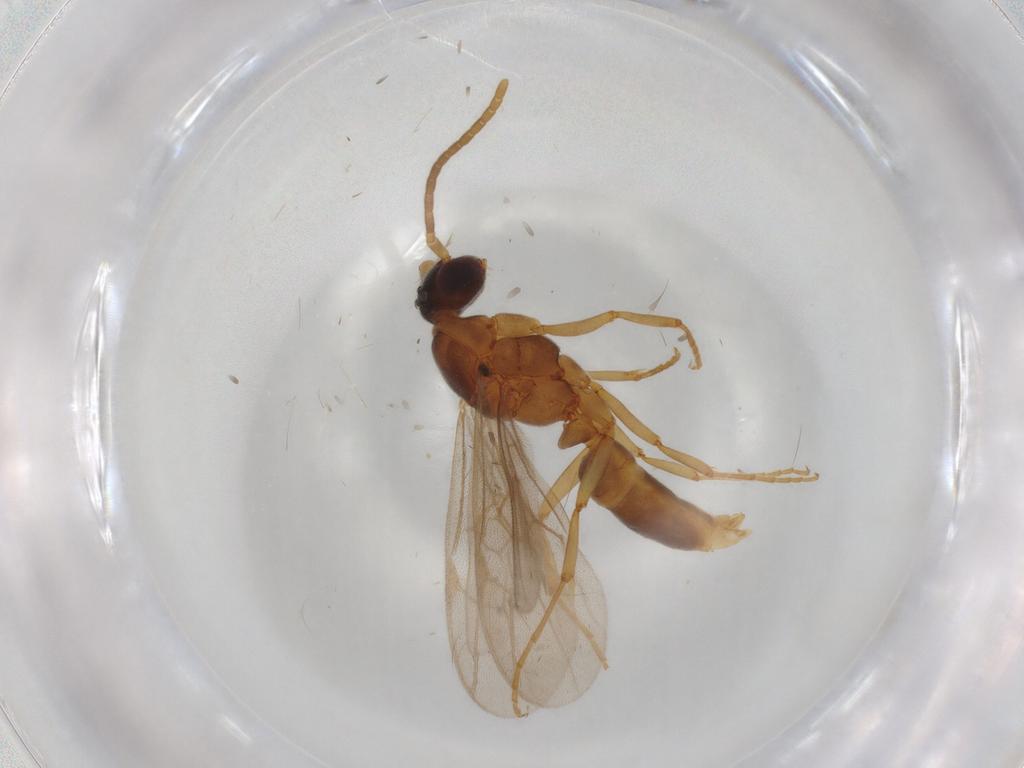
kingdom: Animalia
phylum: Arthropoda
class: Insecta
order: Hymenoptera
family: Formicidae
